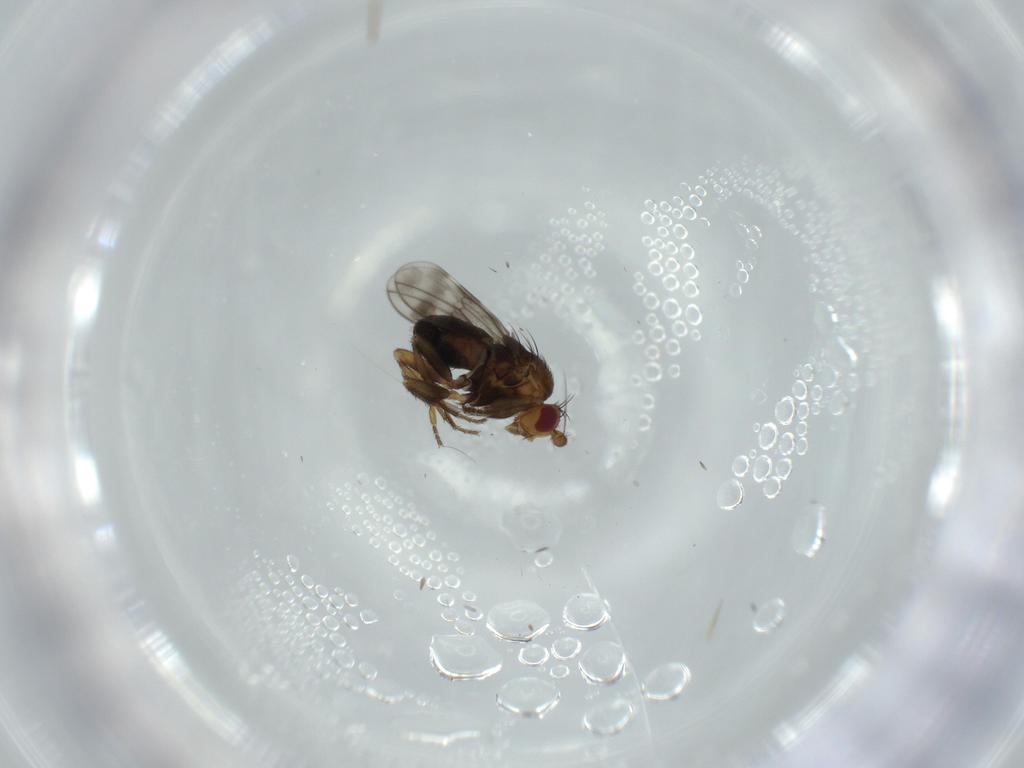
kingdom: Animalia
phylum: Arthropoda
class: Insecta
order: Diptera
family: Sphaeroceridae
